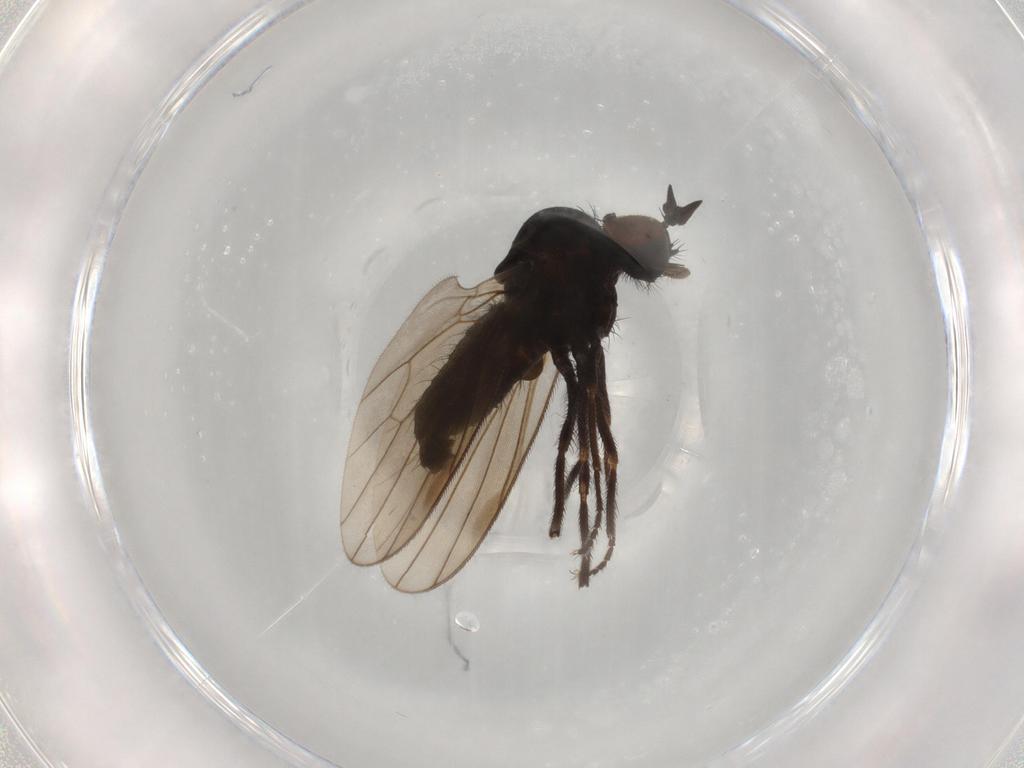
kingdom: Animalia
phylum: Arthropoda
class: Insecta
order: Diptera
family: Dolichopodidae
